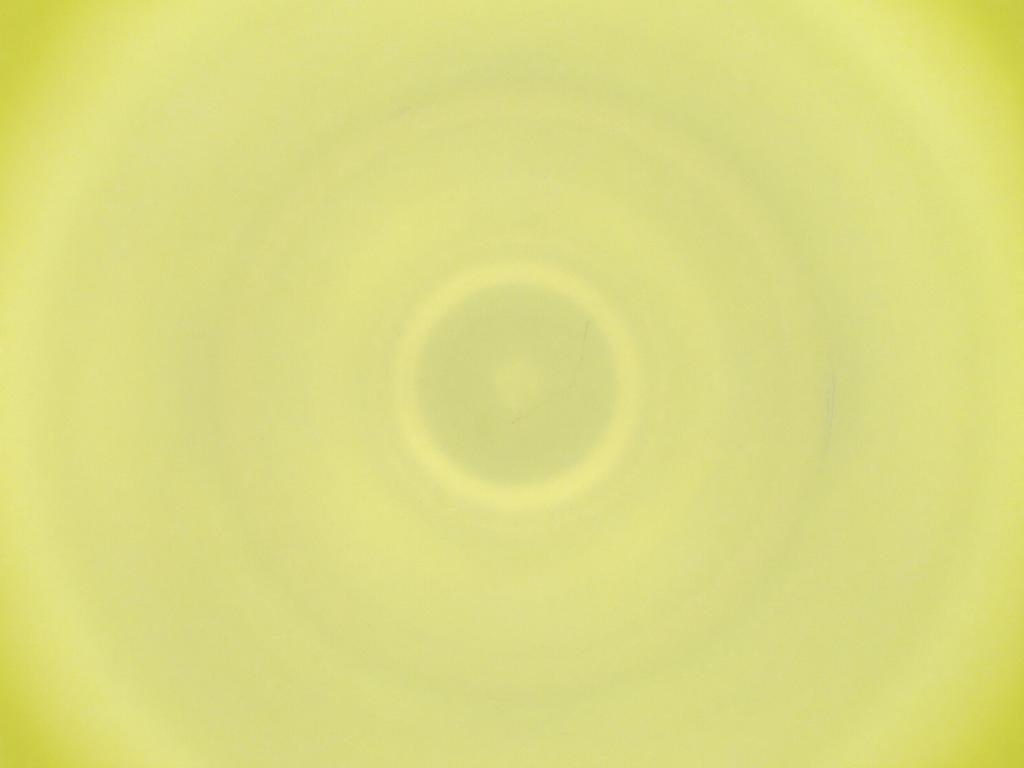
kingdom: Animalia
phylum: Arthropoda
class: Insecta
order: Diptera
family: Cecidomyiidae
